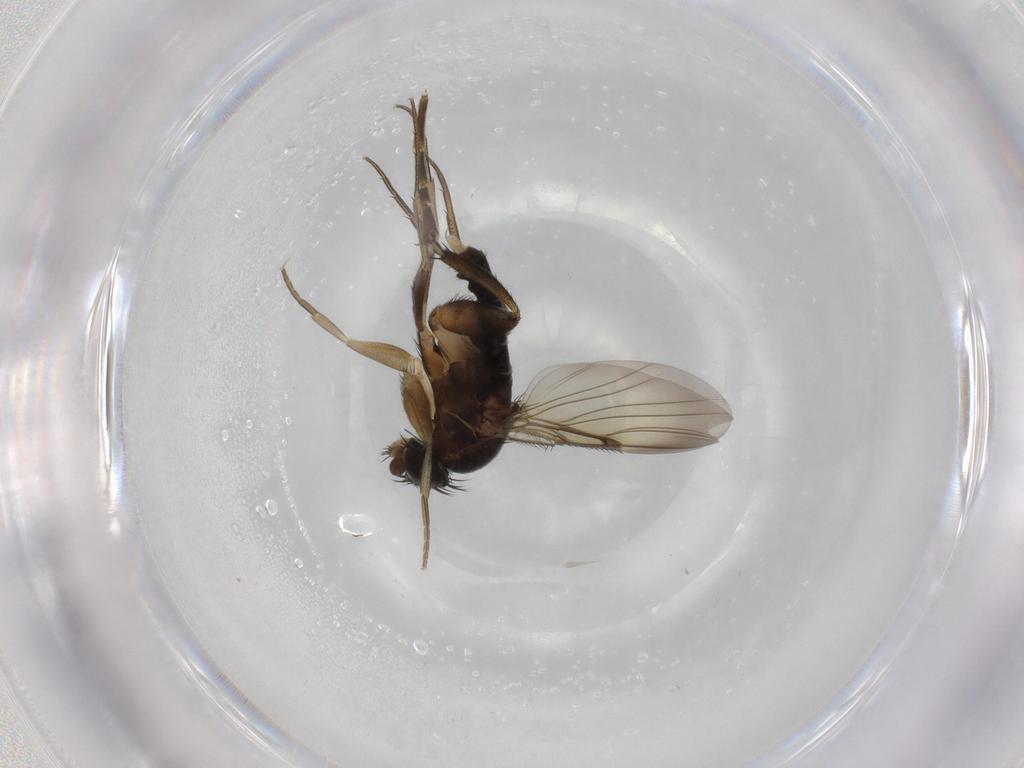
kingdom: Animalia
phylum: Arthropoda
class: Insecta
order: Diptera
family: Phoridae
